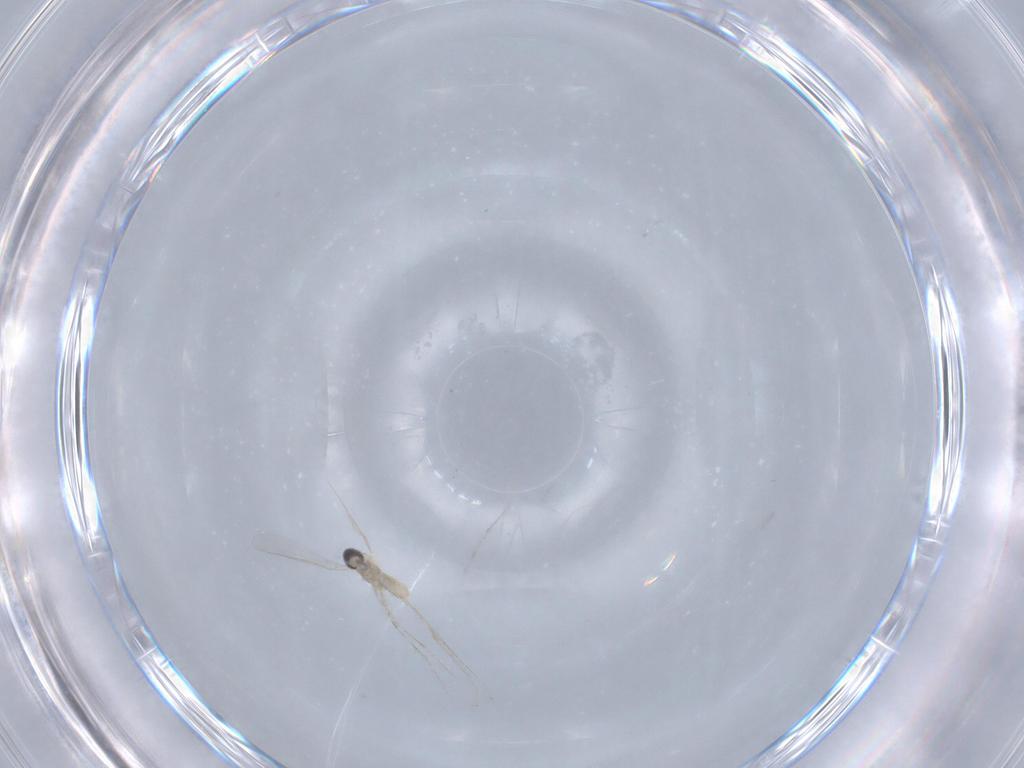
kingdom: Animalia
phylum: Arthropoda
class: Insecta
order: Diptera
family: Cecidomyiidae
